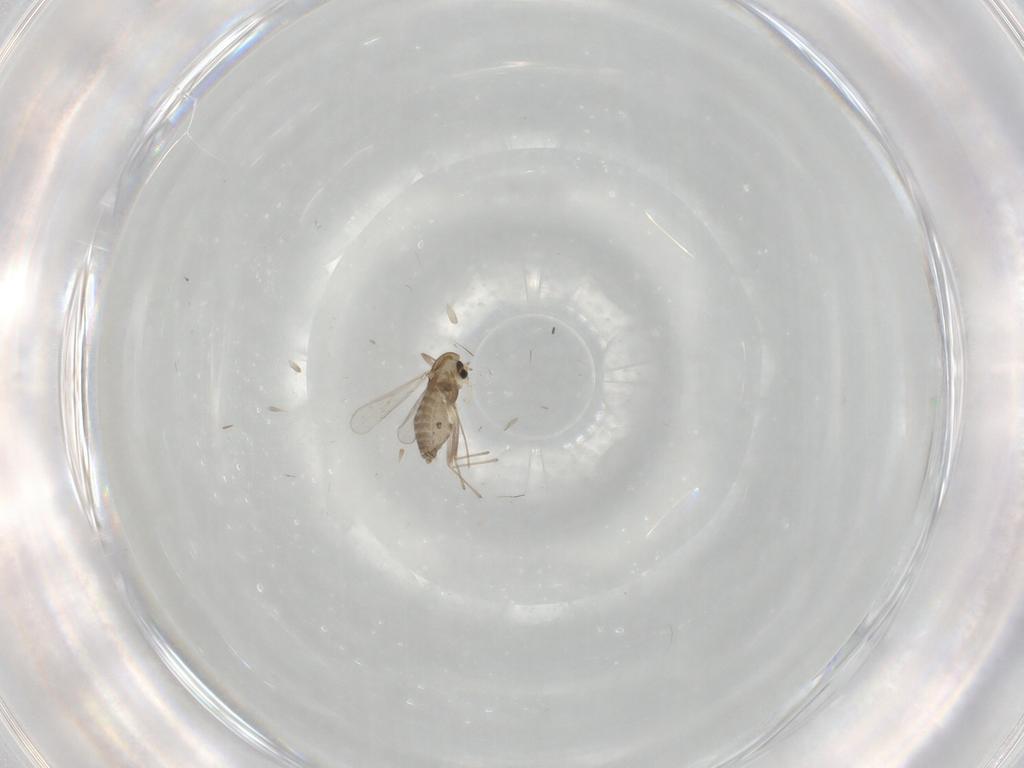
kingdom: Animalia
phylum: Arthropoda
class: Insecta
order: Diptera
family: Chironomidae
